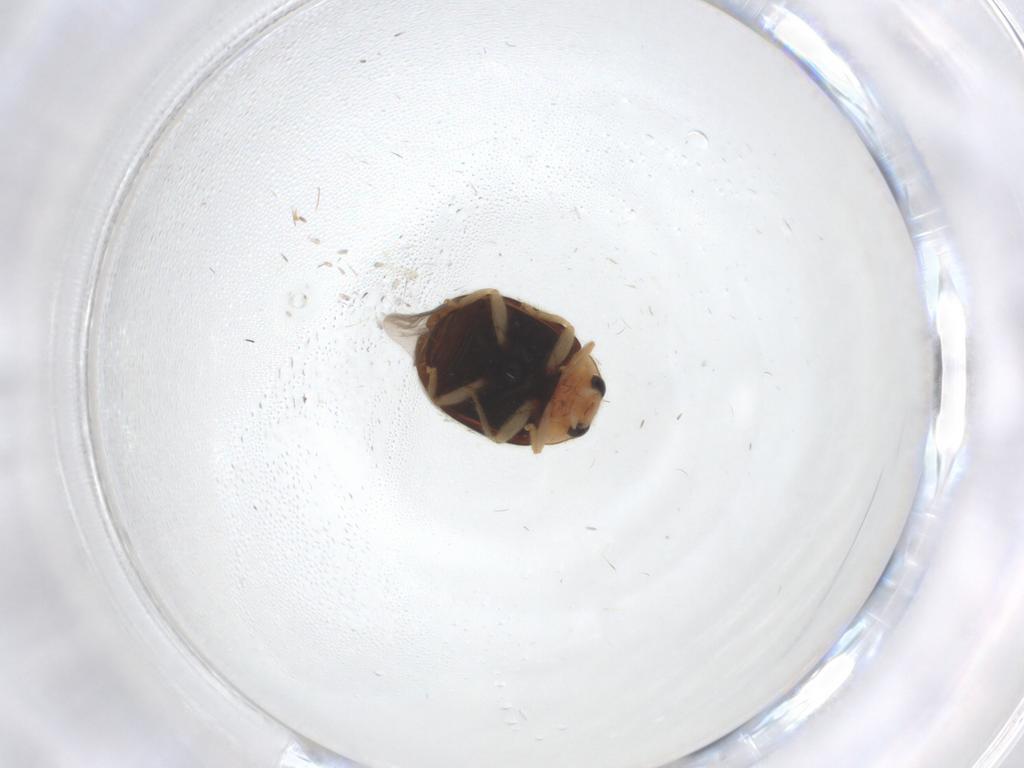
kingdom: Animalia
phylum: Arthropoda
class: Insecta
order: Coleoptera
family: Coccinellidae
